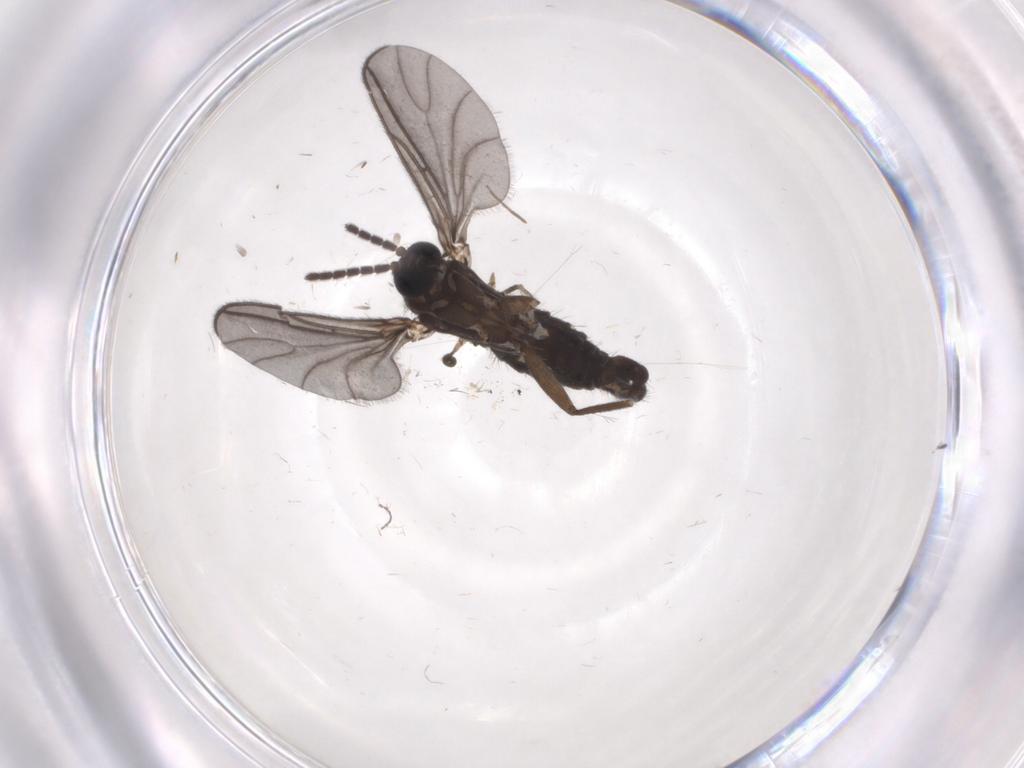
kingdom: Animalia
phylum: Arthropoda
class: Insecta
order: Diptera
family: Sciaridae
